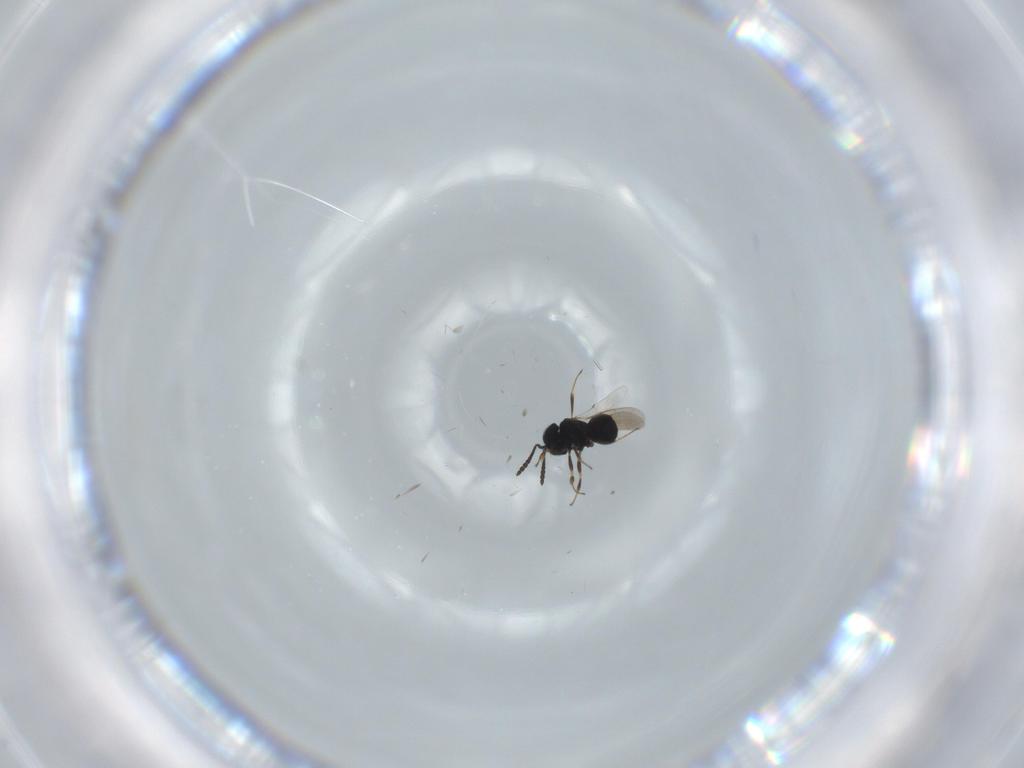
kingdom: Animalia
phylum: Arthropoda
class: Insecta
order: Hymenoptera
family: Scelionidae
